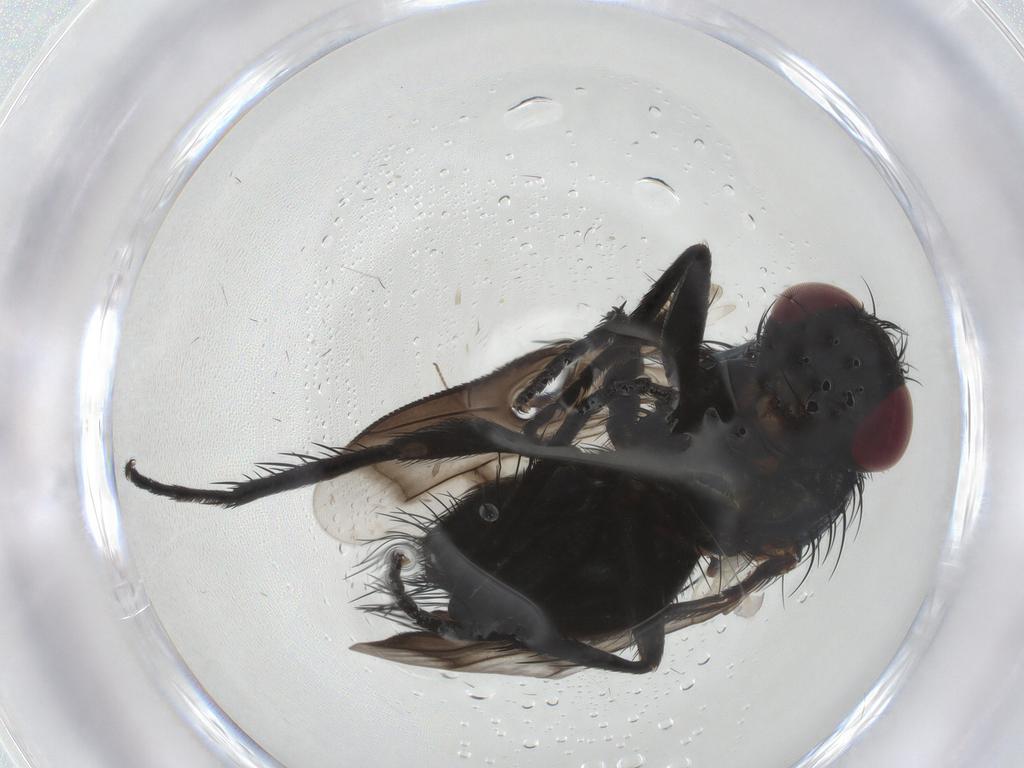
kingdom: Animalia
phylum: Arthropoda
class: Insecta
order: Diptera
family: Tachinidae
